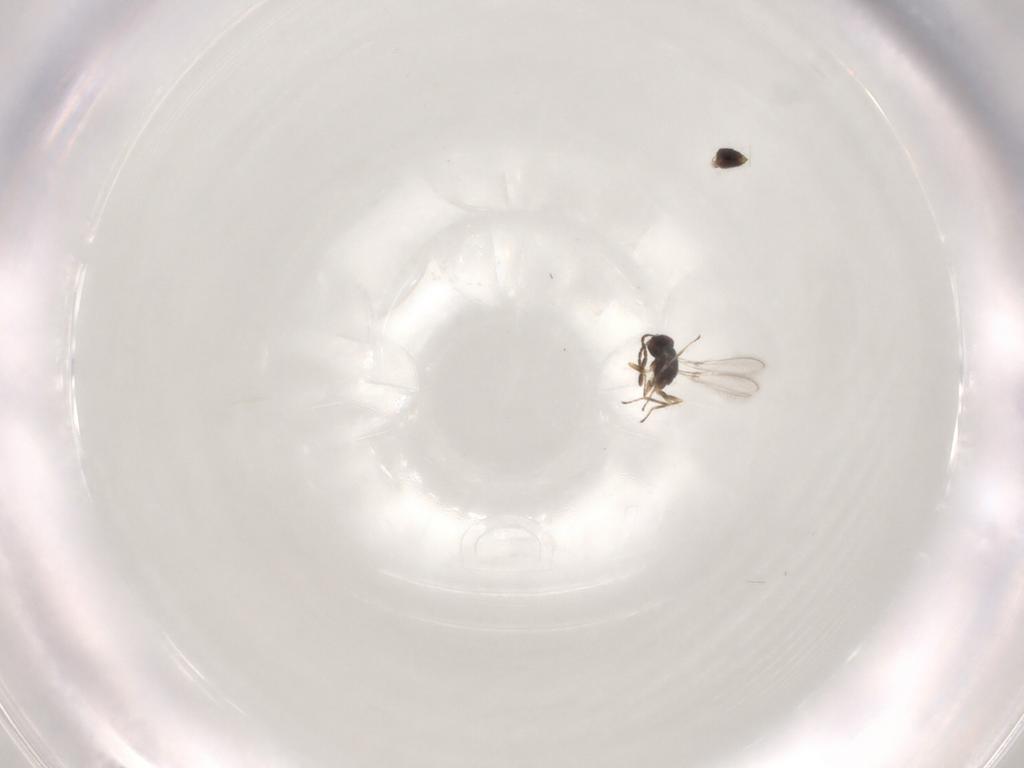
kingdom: Animalia
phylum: Arthropoda
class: Insecta
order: Hymenoptera
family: Mymaridae
